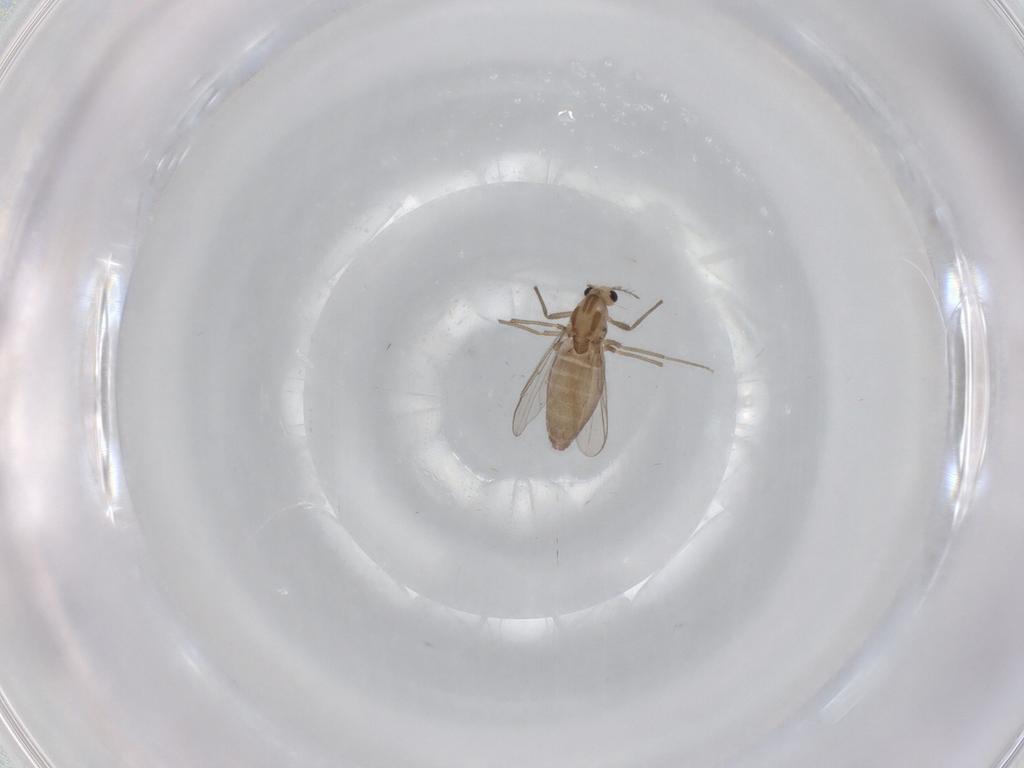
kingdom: Animalia
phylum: Arthropoda
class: Insecta
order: Diptera
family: Chironomidae
